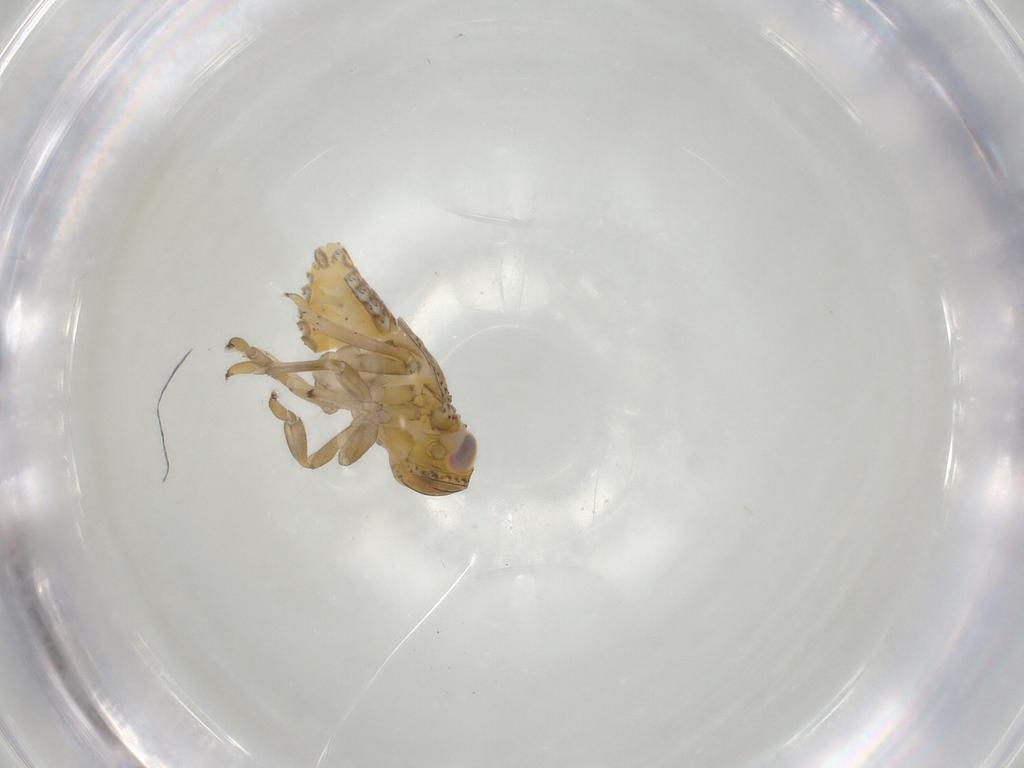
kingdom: Animalia
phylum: Arthropoda
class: Insecta
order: Hemiptera
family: Issidae
